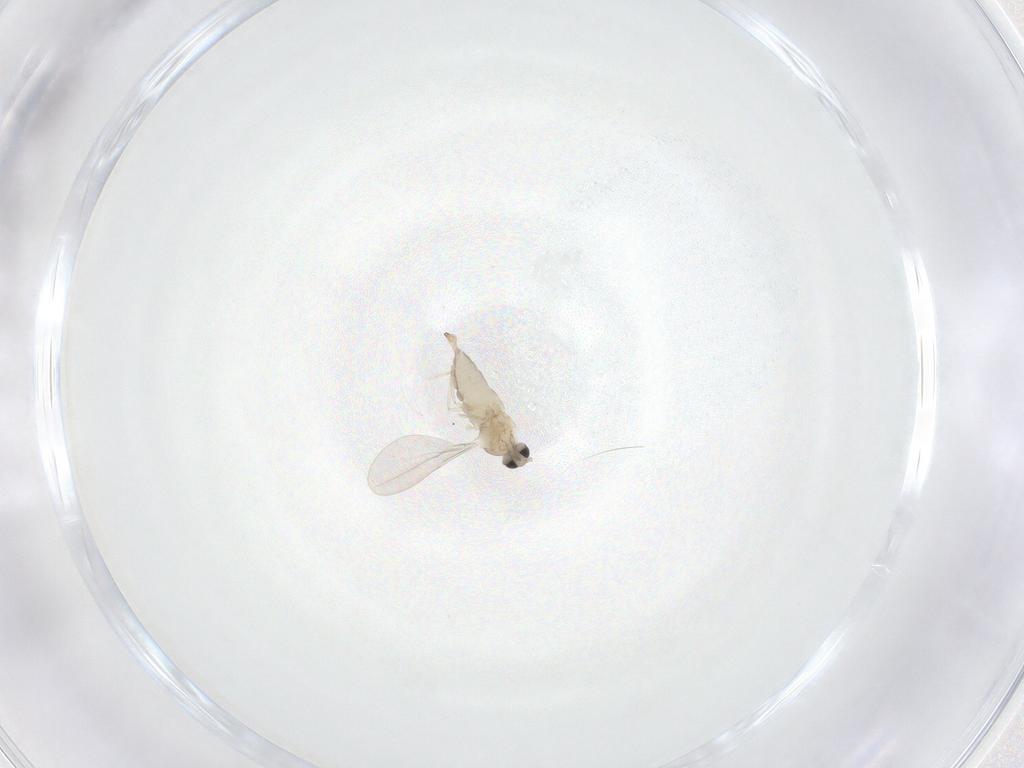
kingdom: Animalia
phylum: Arthropoda
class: Insecta
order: Diptera
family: Cecidomyiidae
